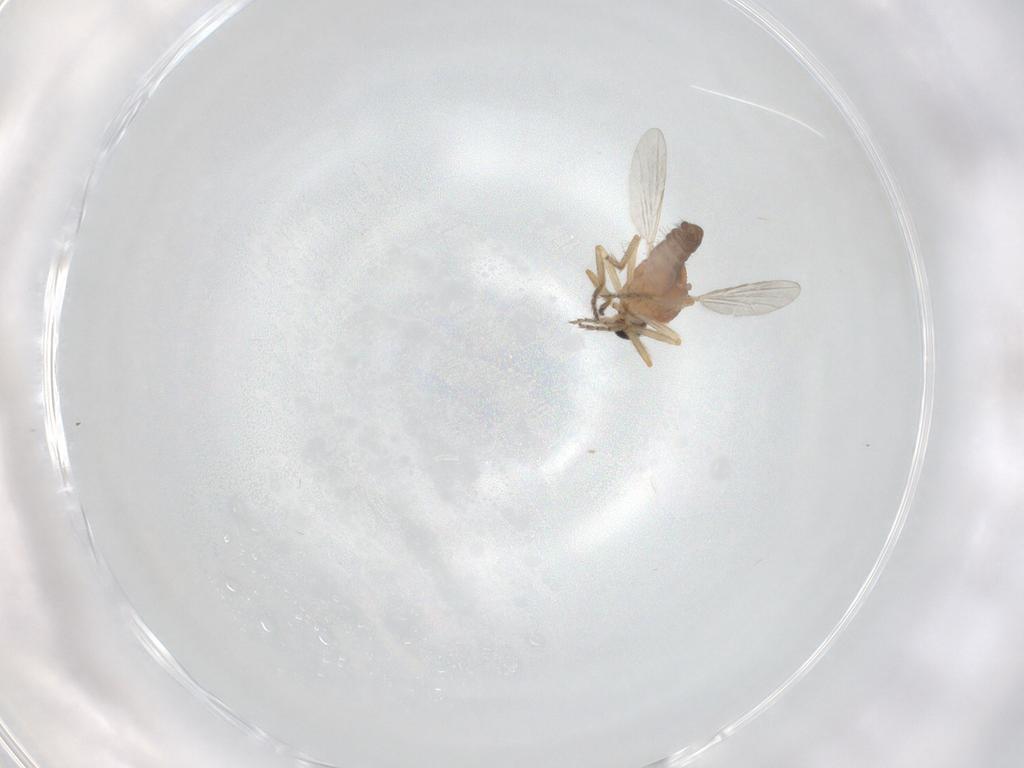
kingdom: Animalia
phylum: Arthropoda
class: Insecta
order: Diptera
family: Ceratopogonidae
